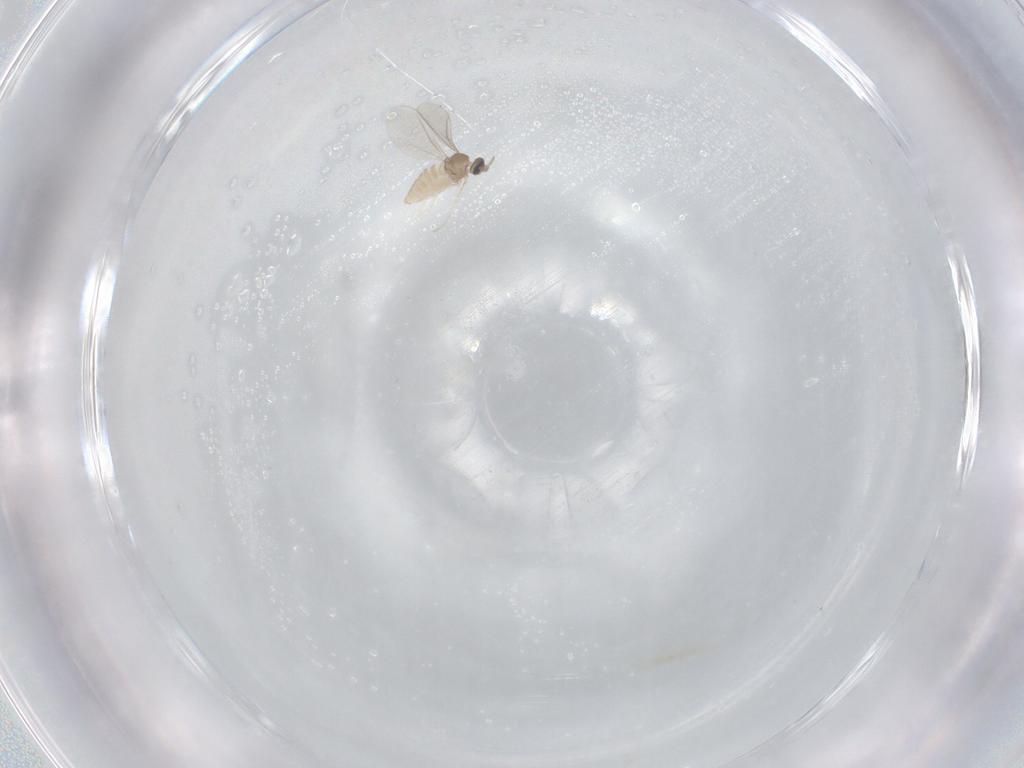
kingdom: Animalia
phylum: Arthropoda
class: Insecta
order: Diptera
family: Cecidomyiidae
